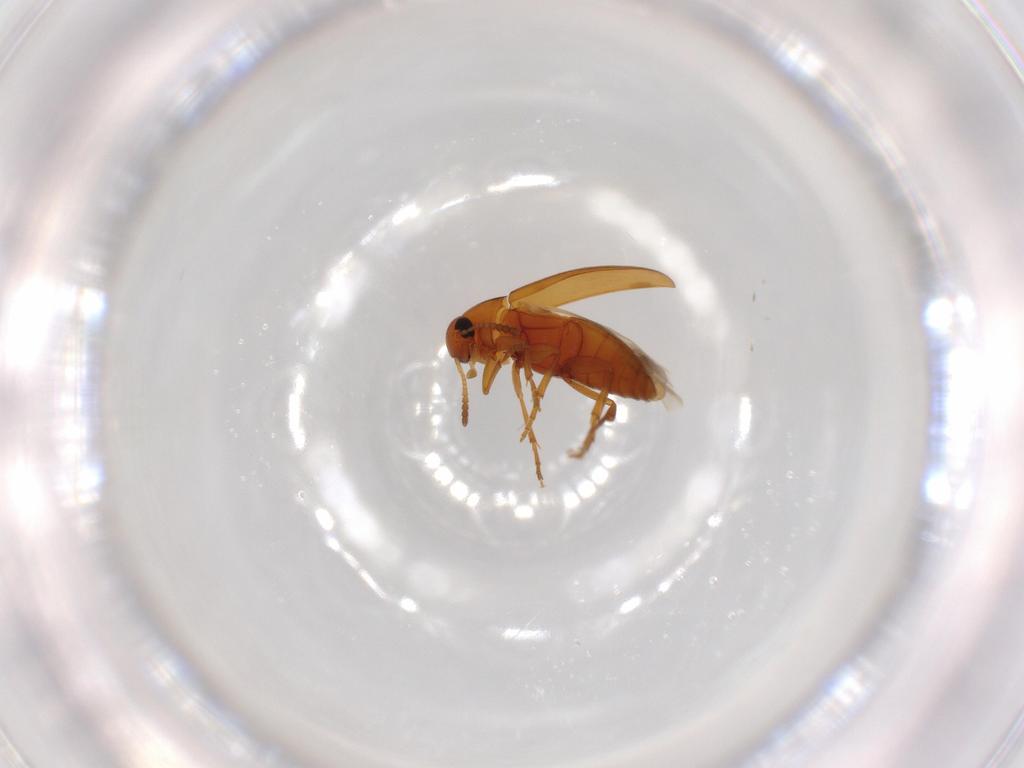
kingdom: Animalia
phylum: Arthropoda
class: Insecta
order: Coleoptera
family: Scraptiidae
